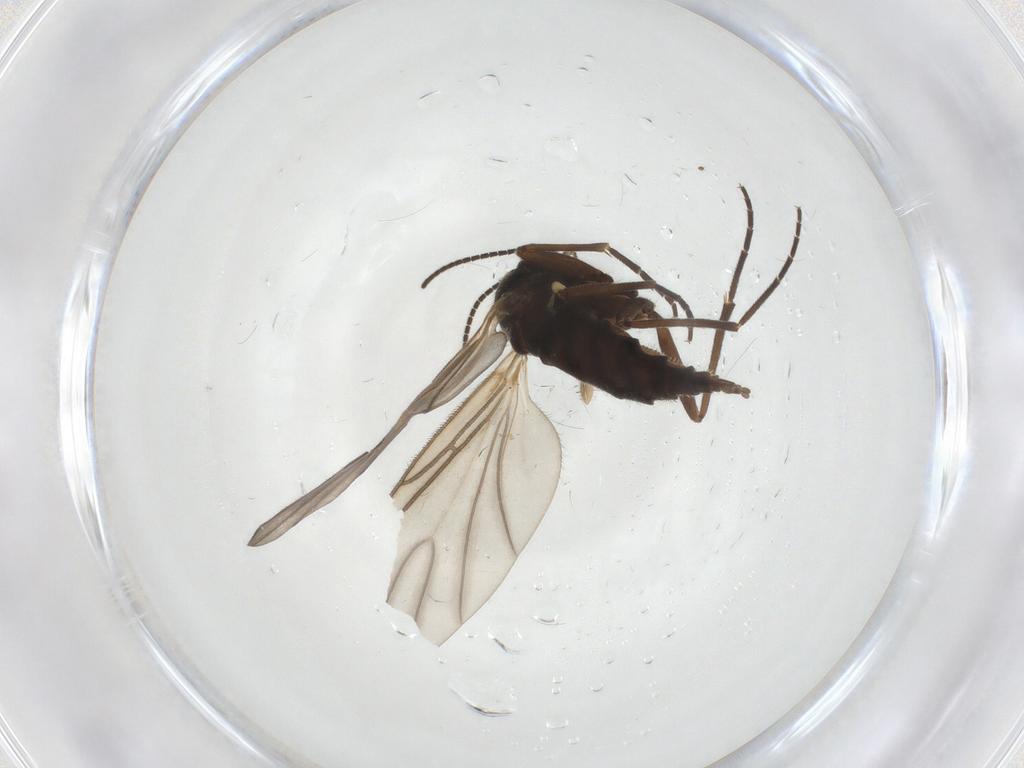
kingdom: Animalia
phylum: Arthropoda
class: Insecta
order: Diptera
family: Sciaridae
